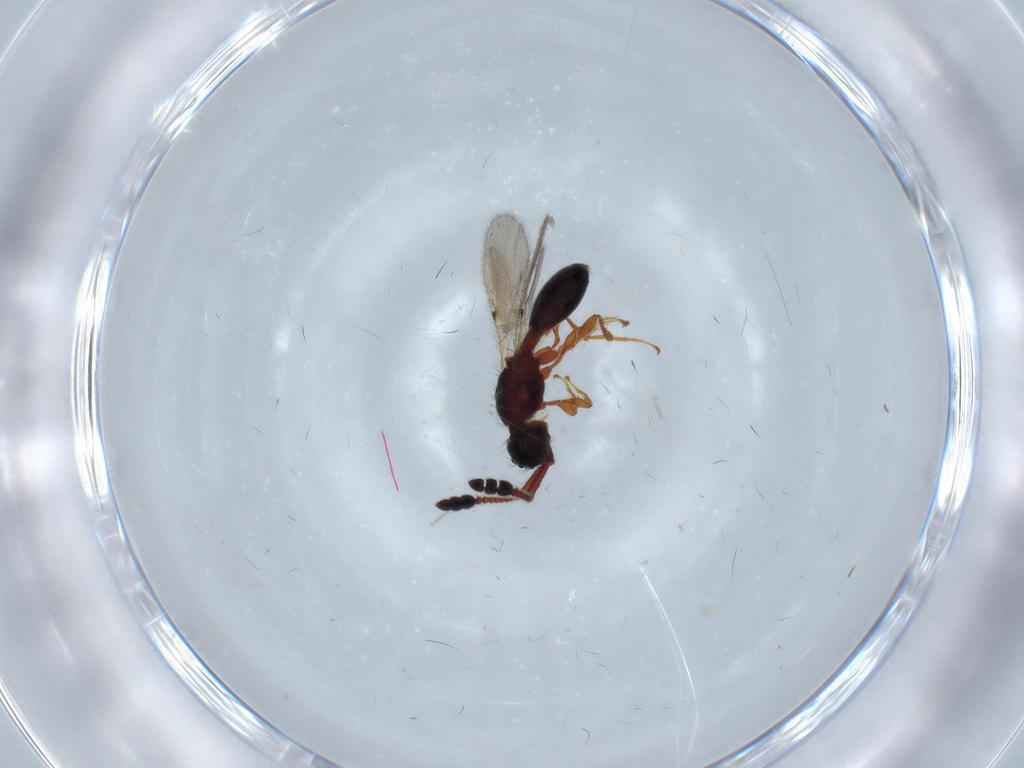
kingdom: Animalia
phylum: Arthropoda
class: Insecta
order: Hymenoptera
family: Diapriidae
